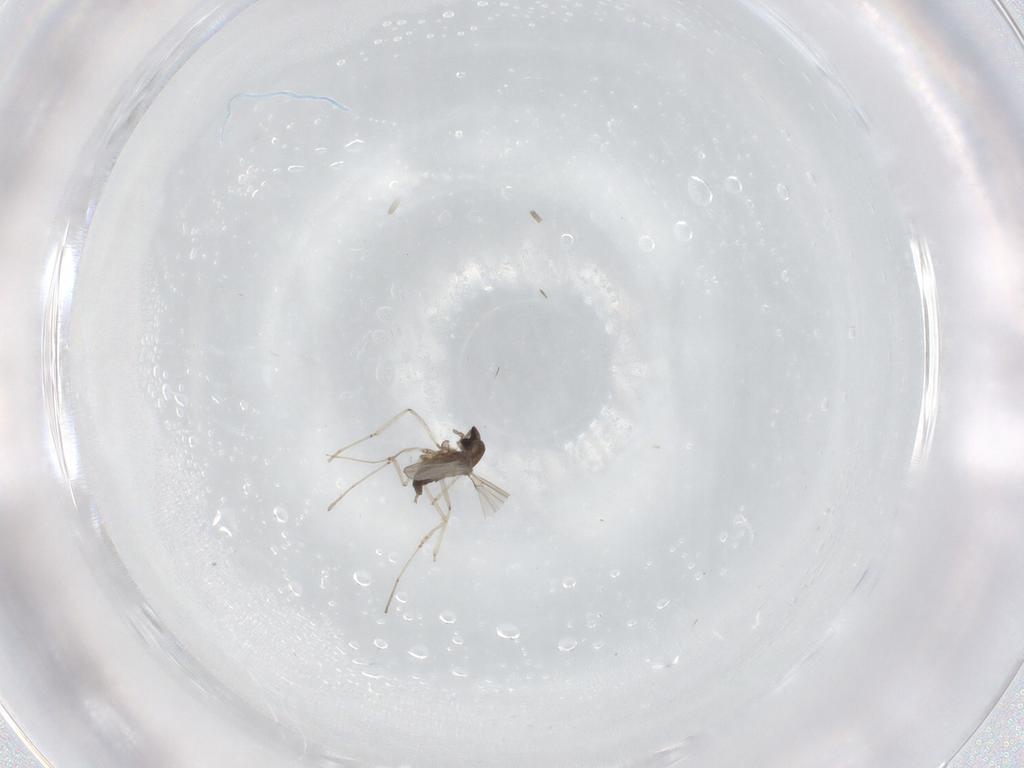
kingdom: Animalia
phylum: Arthropoda
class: Insecta
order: Diptera
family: Cecidomyiidae
